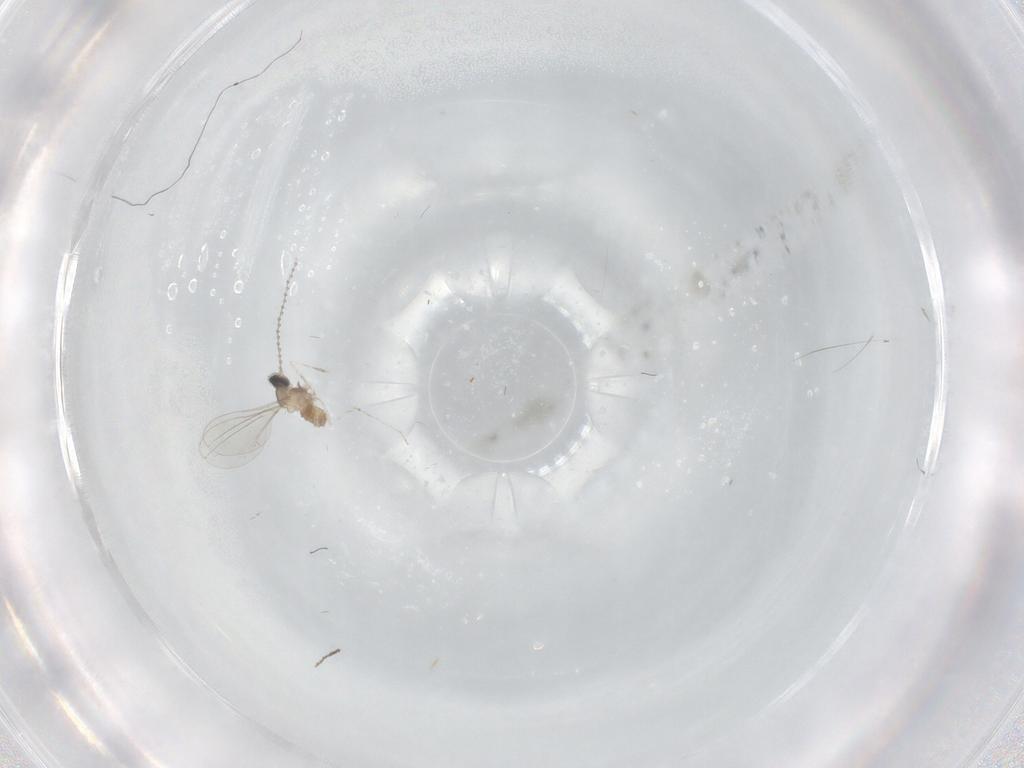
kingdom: Animalia
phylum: Arthropoda
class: Insecta
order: Diptera
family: Cecidomyiidae
